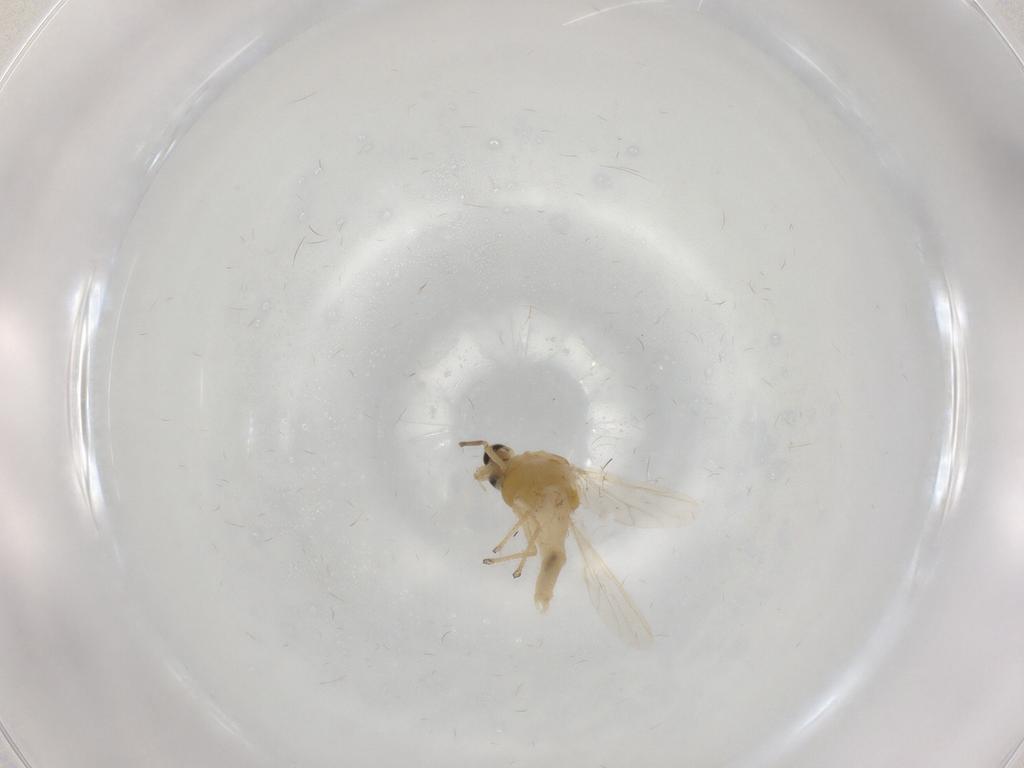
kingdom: Animalia
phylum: Arthropoda
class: Insecta
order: Diptera
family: Chironomidae
